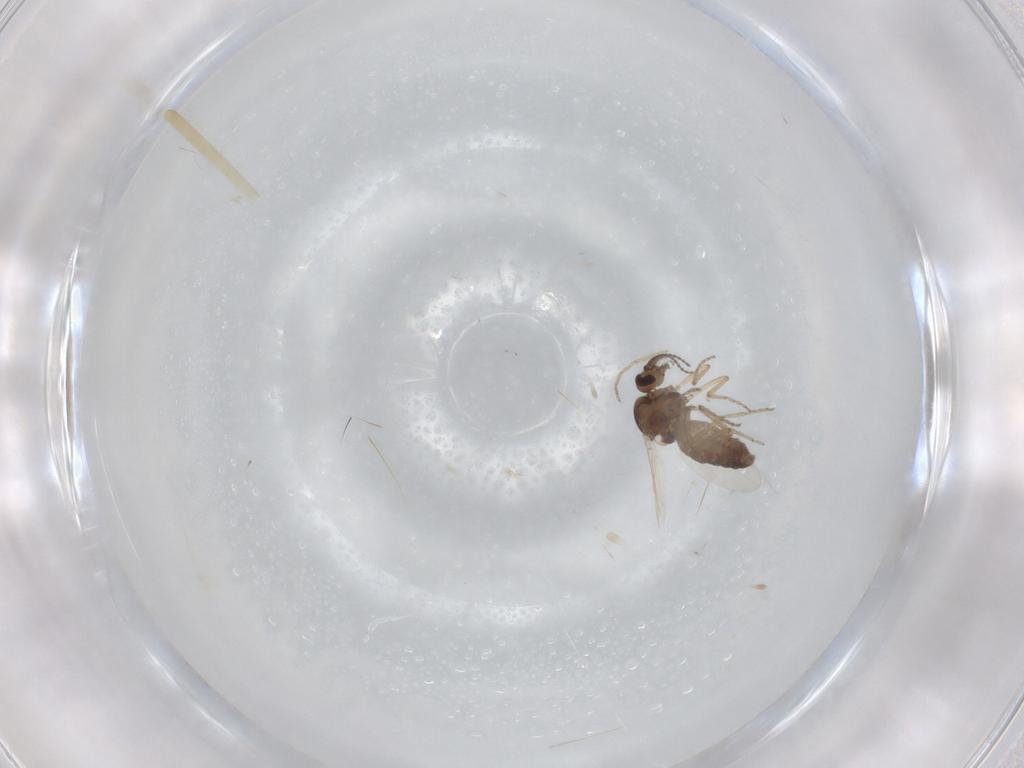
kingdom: Animalia
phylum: Arthropoda
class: Insecta
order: Diptera
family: Ceratopogonidae
